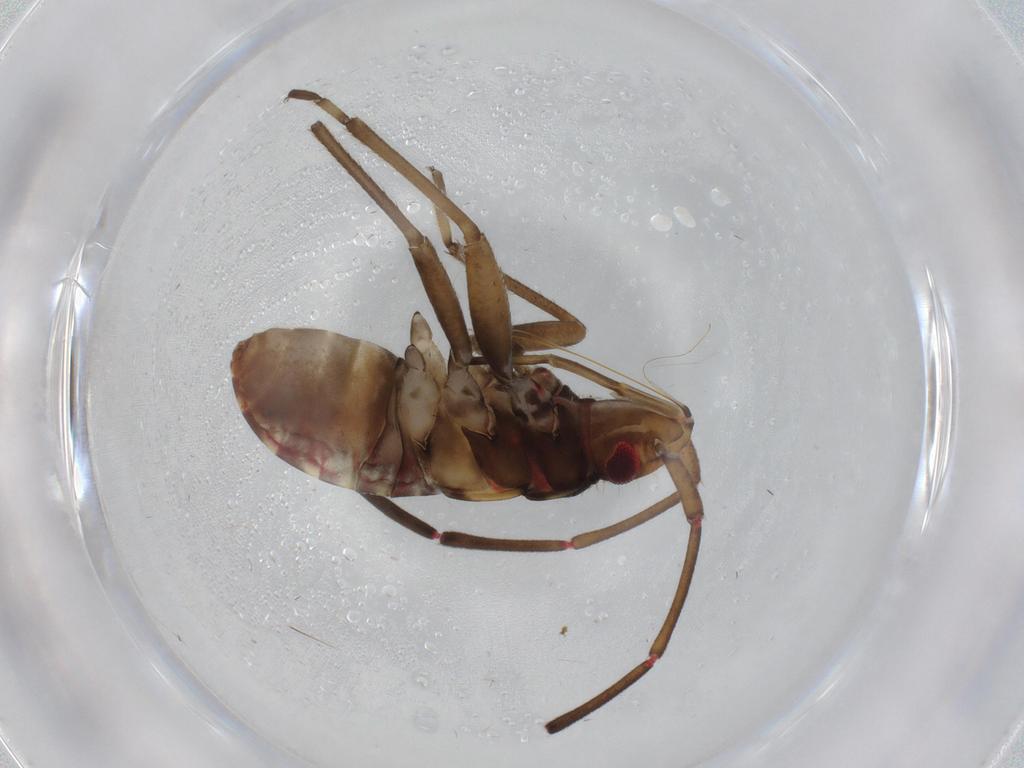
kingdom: Animalia
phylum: Arthropoda
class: Insecta
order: Hemiptera
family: Rhyparochromidae
